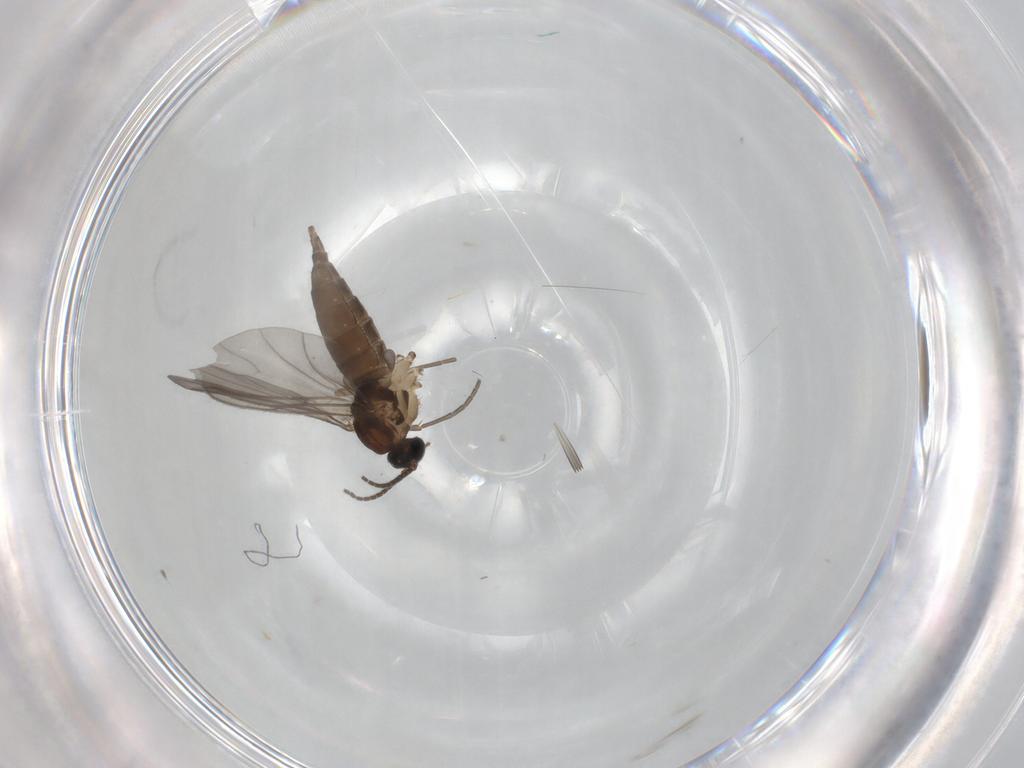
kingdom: Animalia
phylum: Arthropoda
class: Insecta
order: Diptera
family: Sciaridae
